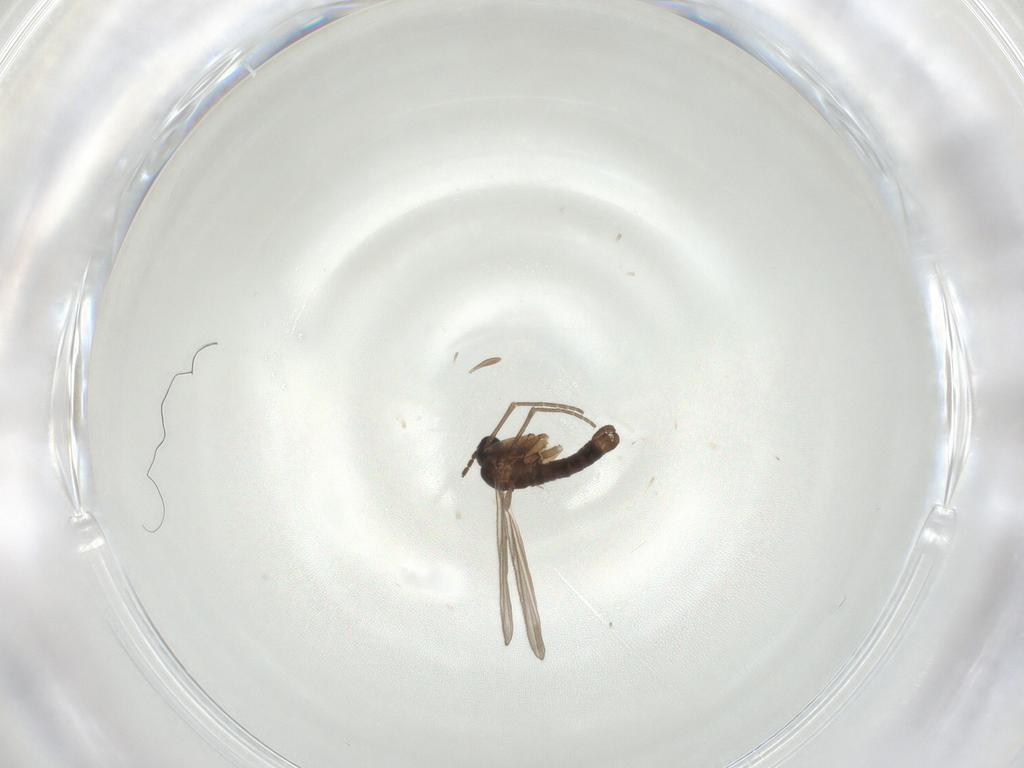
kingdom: Animalia
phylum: Arthropoda
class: Insecta
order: Diptera
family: Sciaridae
